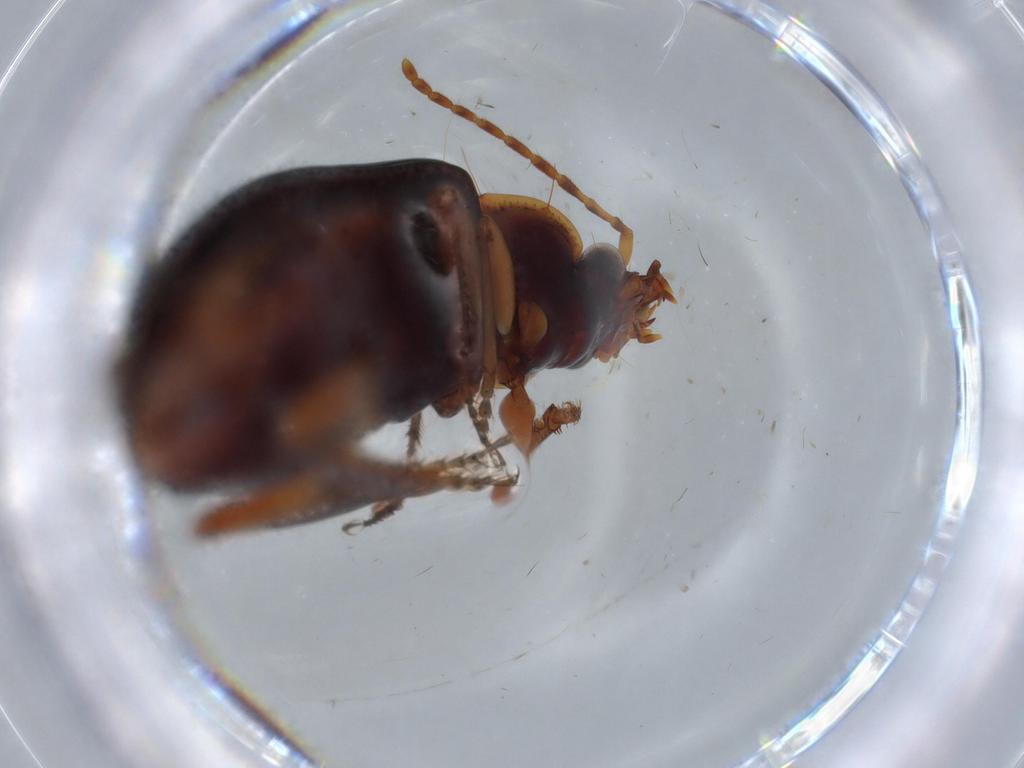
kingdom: Animalia
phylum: Arthropoda
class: Insecta
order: Coleoptera
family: Carabidae
